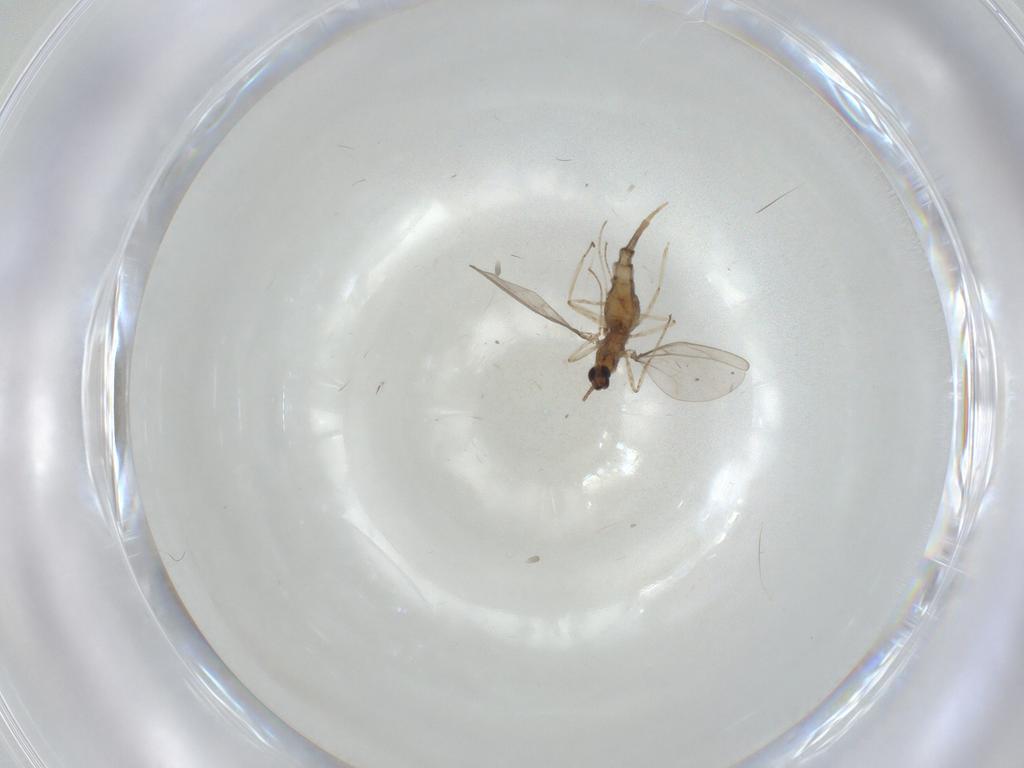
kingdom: Animalia
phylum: Arthropoda
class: Insecta
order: Diptera
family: Cecidomyiidae
